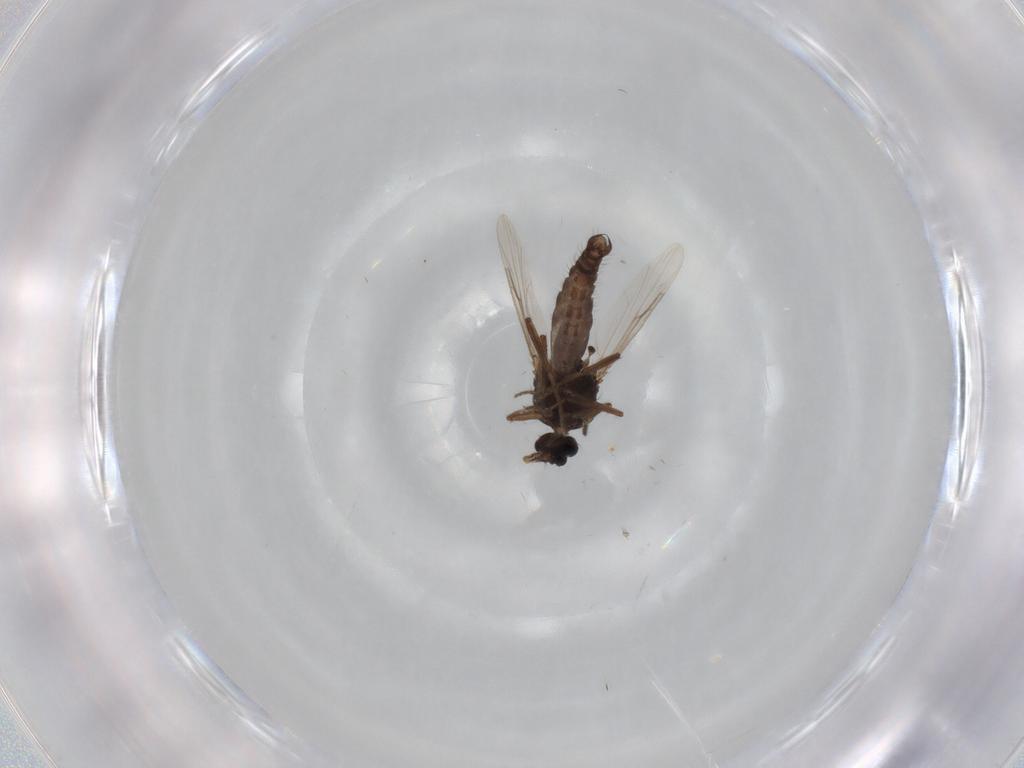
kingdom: Animalia
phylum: Arthropoda
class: Insecta
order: Diptera
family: Ceratopogonidae
